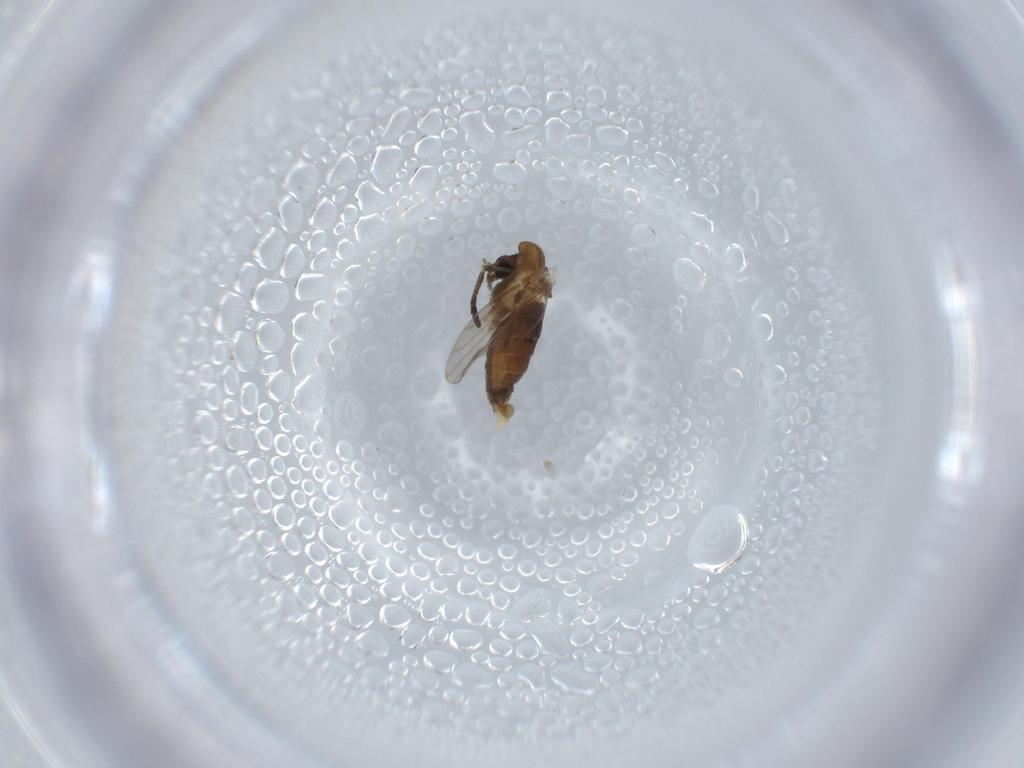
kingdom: Animalia
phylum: Arthropoda
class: Insecta
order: Diptera
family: Psychodidae
